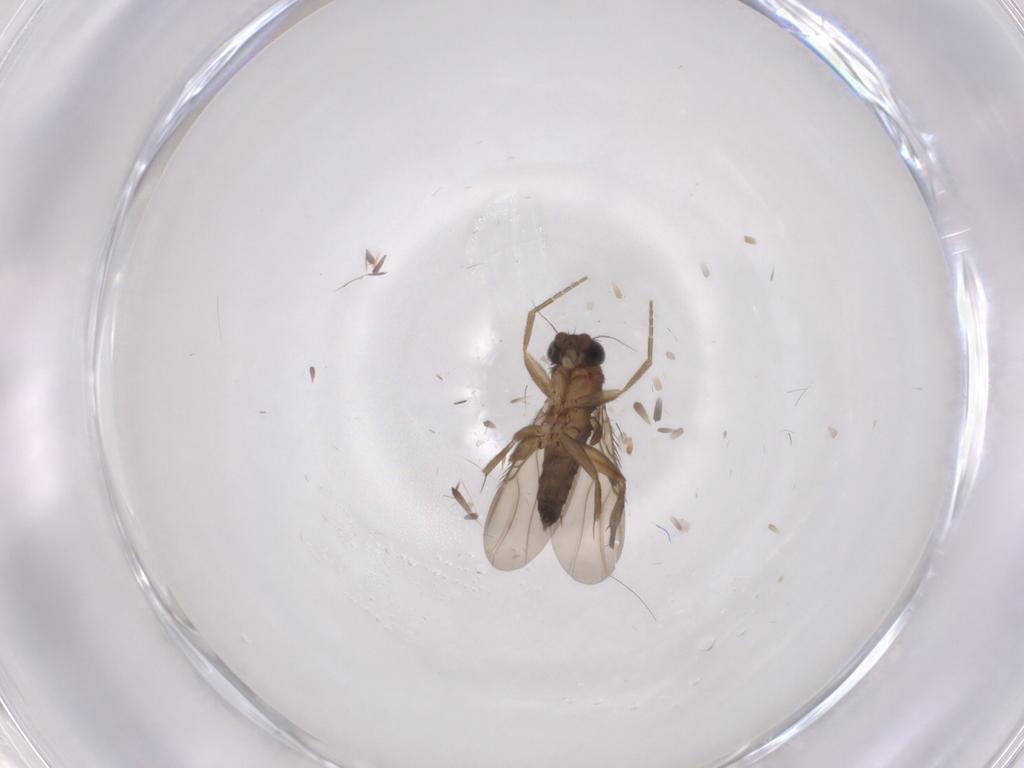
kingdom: Animalia
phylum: Arthropoda
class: Insecta
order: Diptera
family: Phoridae
